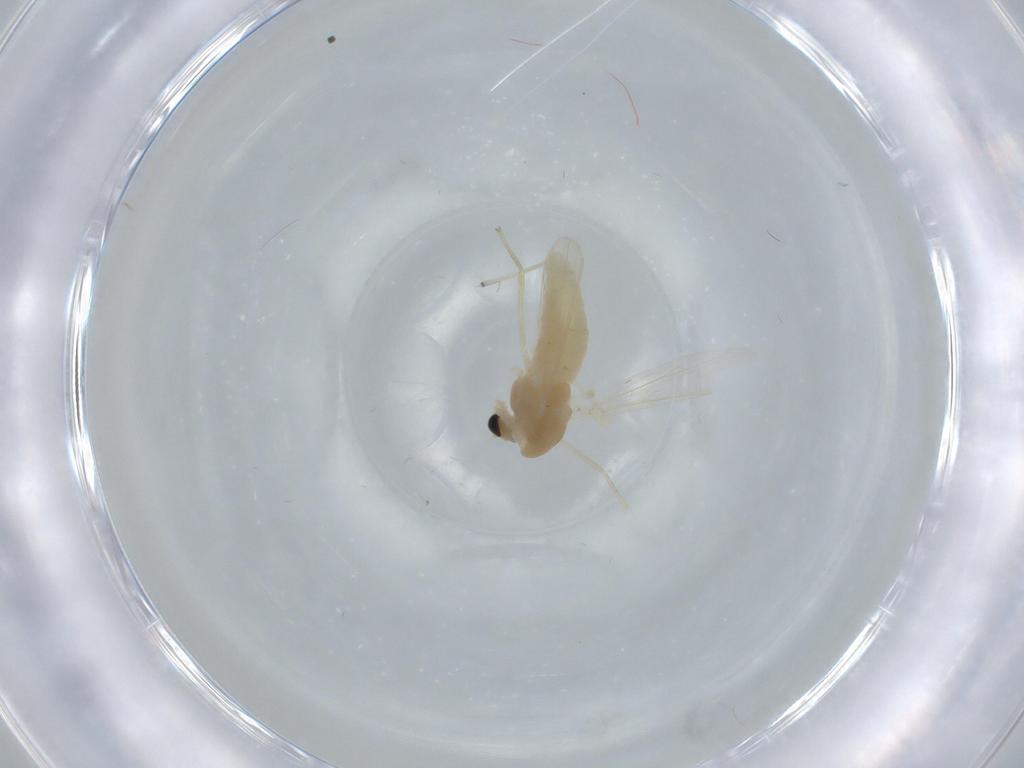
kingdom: Animalia
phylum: Arthropoda
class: Insecta
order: Diptera
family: Chironomidae
